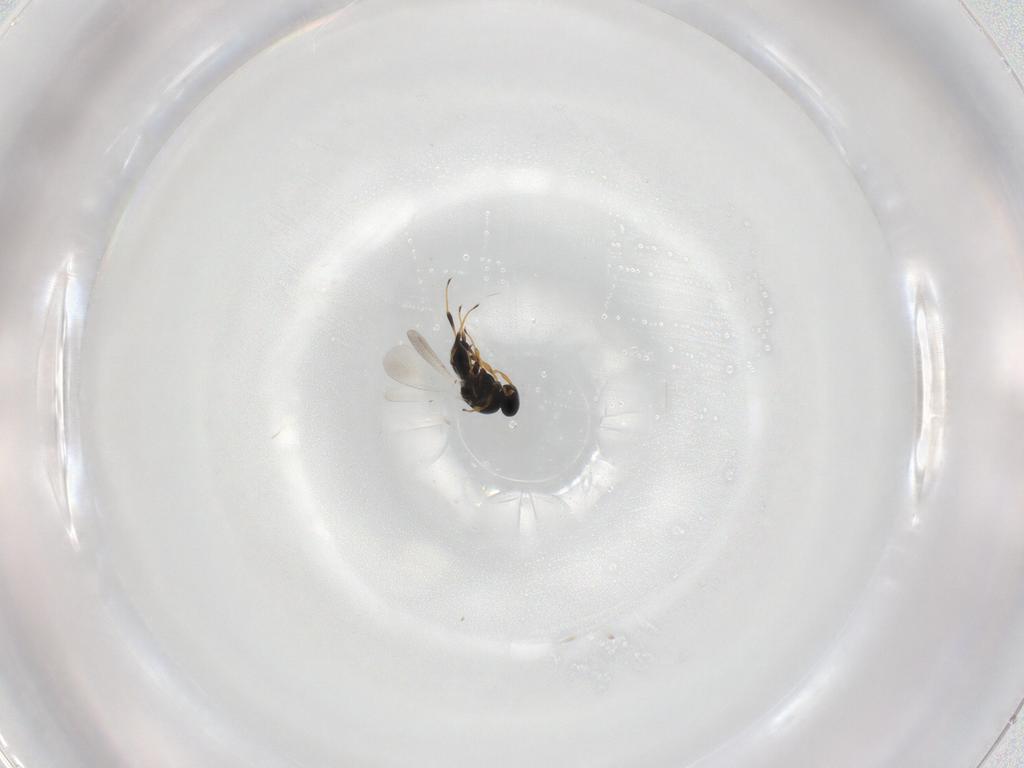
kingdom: Animalia
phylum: Arthropoda
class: Insecta
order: Hymenoptera
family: Platygastridae
